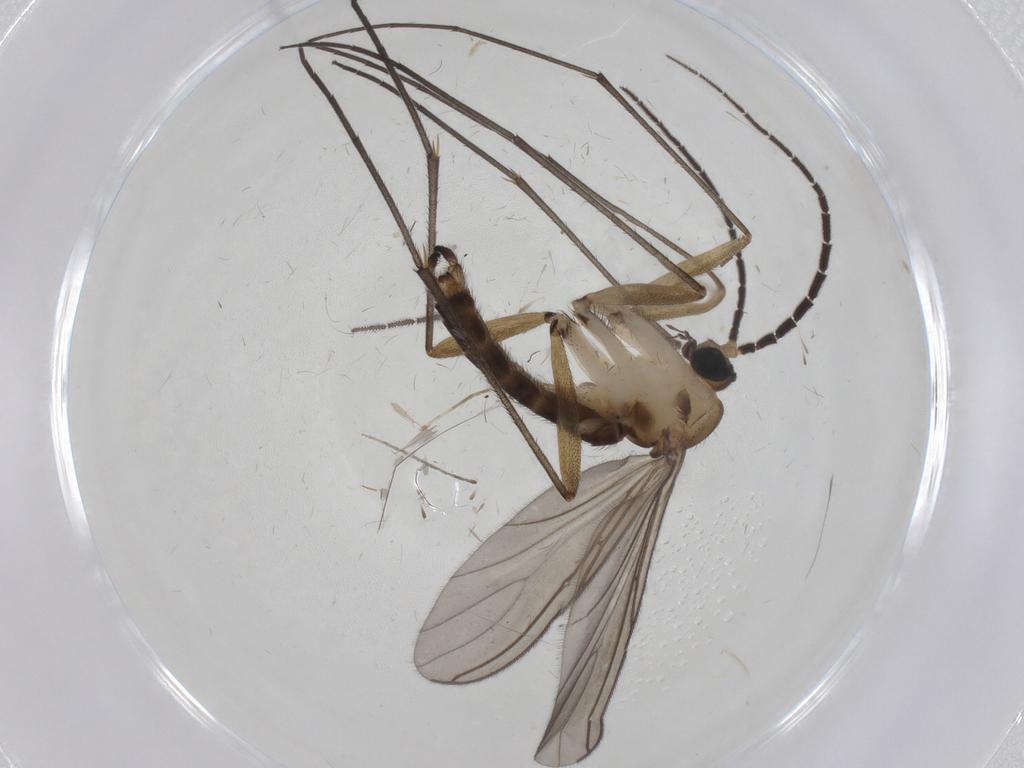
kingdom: Animalia
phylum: Arthropoda
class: Insecta
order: Diptera
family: Sciaridae
